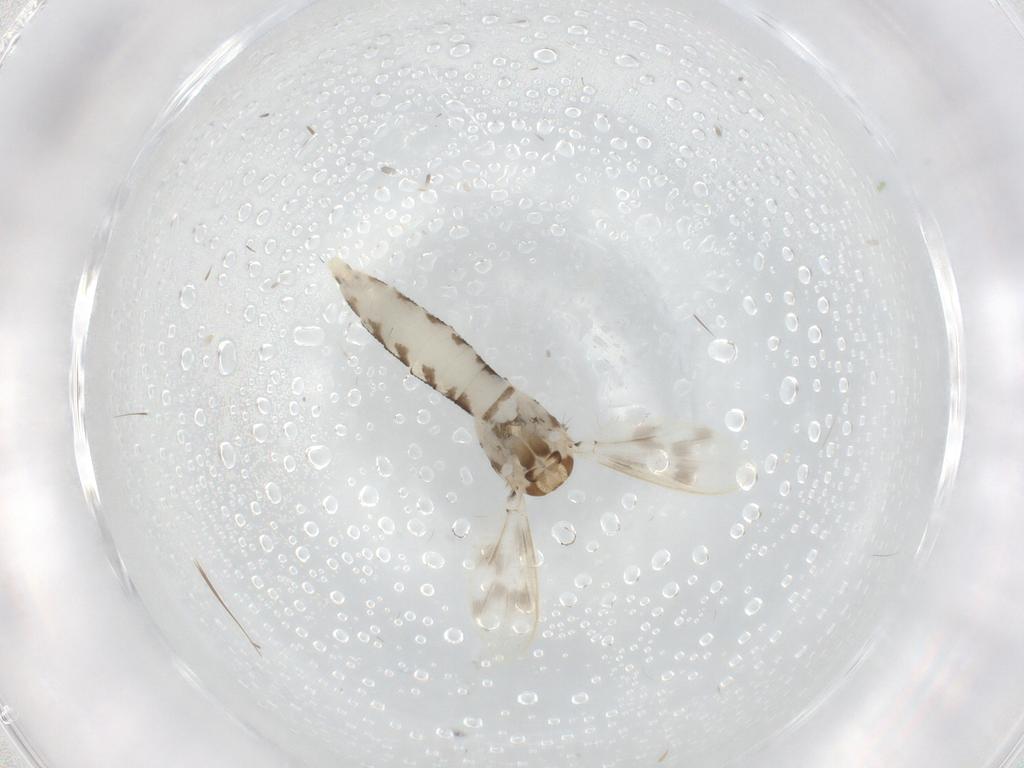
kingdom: Animalia
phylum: Arthropoda
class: Insecta
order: Diptera
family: Corethrellidae
